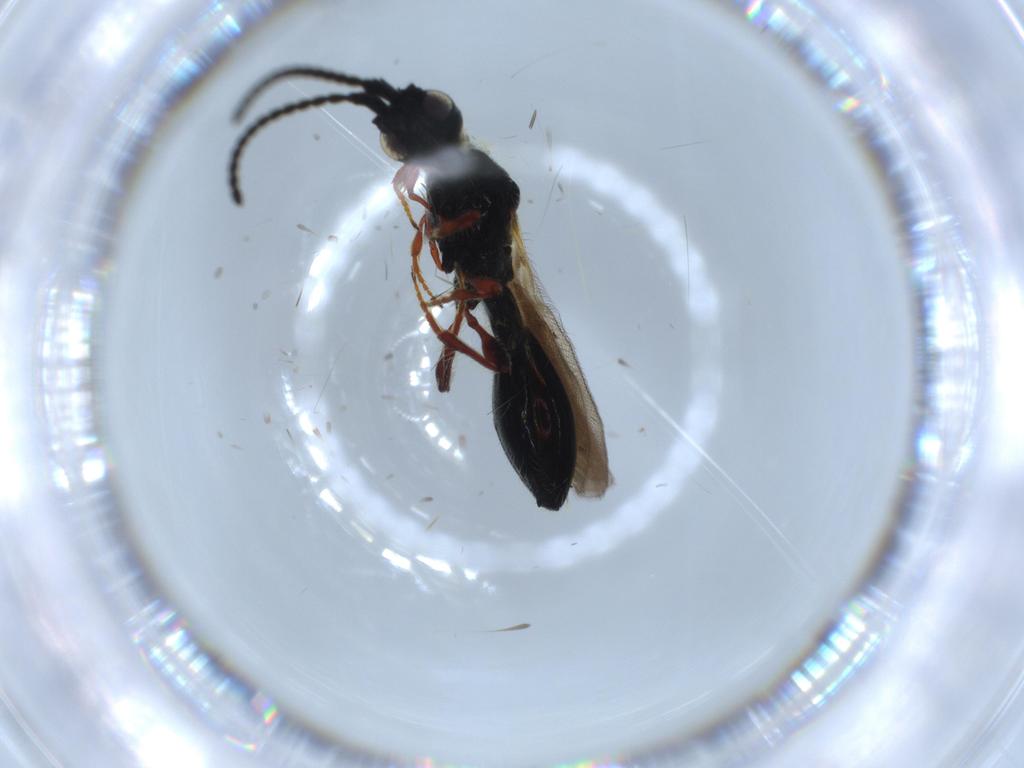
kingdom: Animalia
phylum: Arthropoda
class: Insecta
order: Hymenoptera
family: Diapriidae
